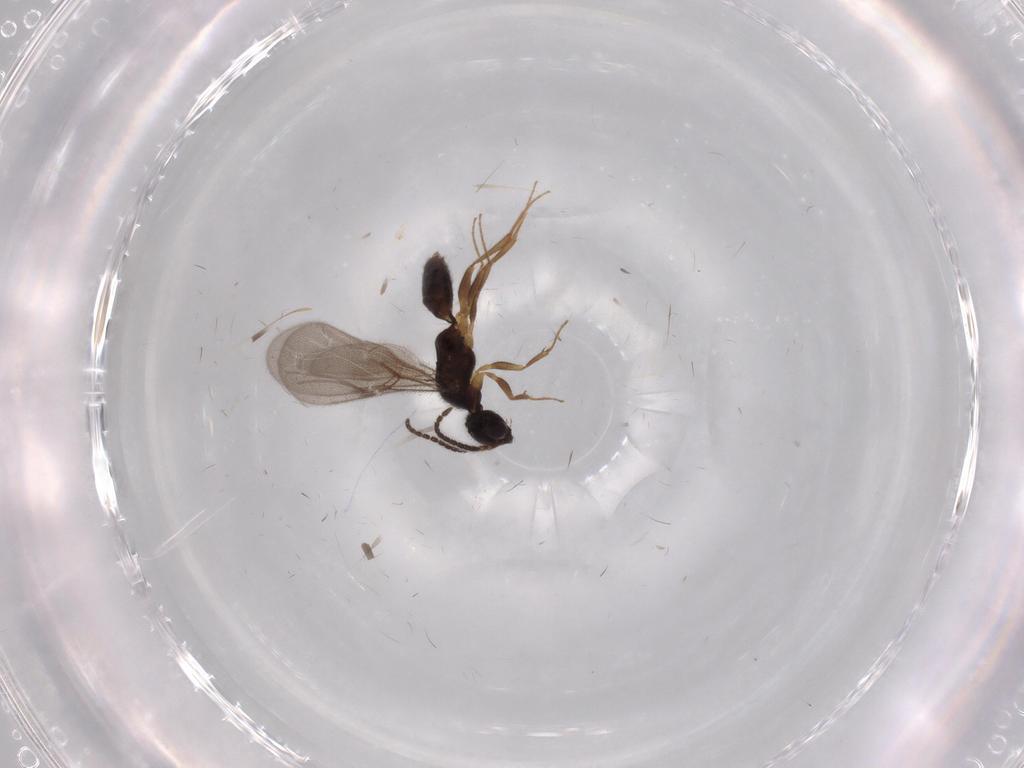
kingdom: Animalia
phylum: Arthropoda
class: Insecta
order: Hymenoptera
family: Bethylidae
